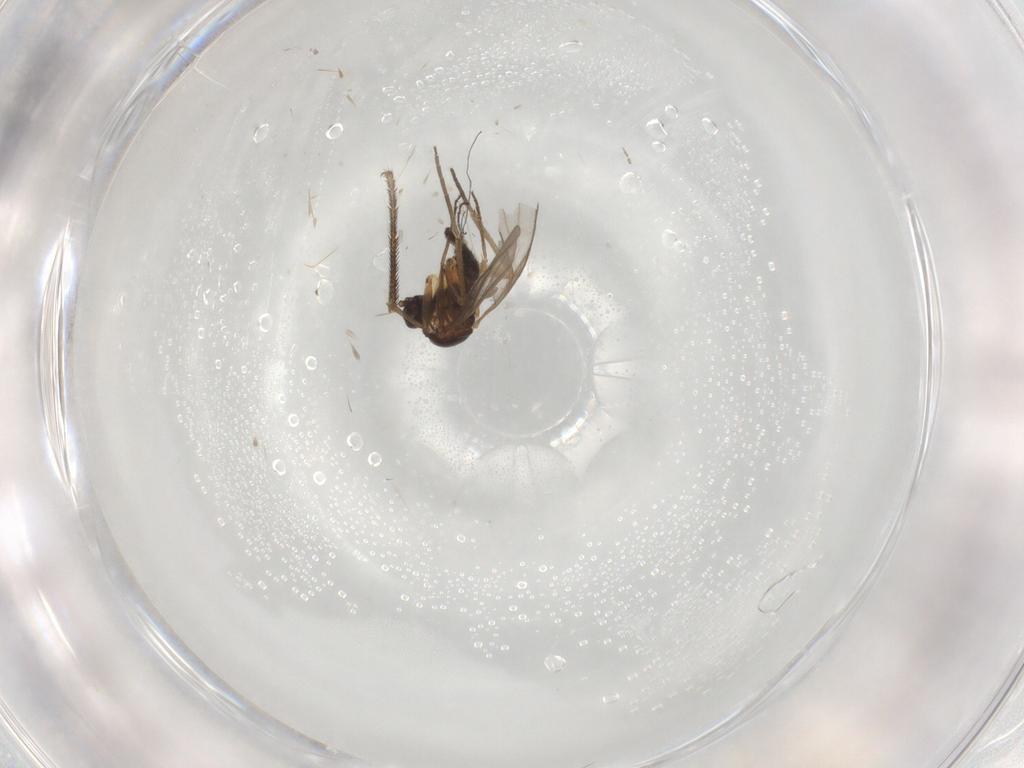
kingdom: Animalia
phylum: Arthropoda
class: Insecta
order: Diptera
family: Sciaridae
